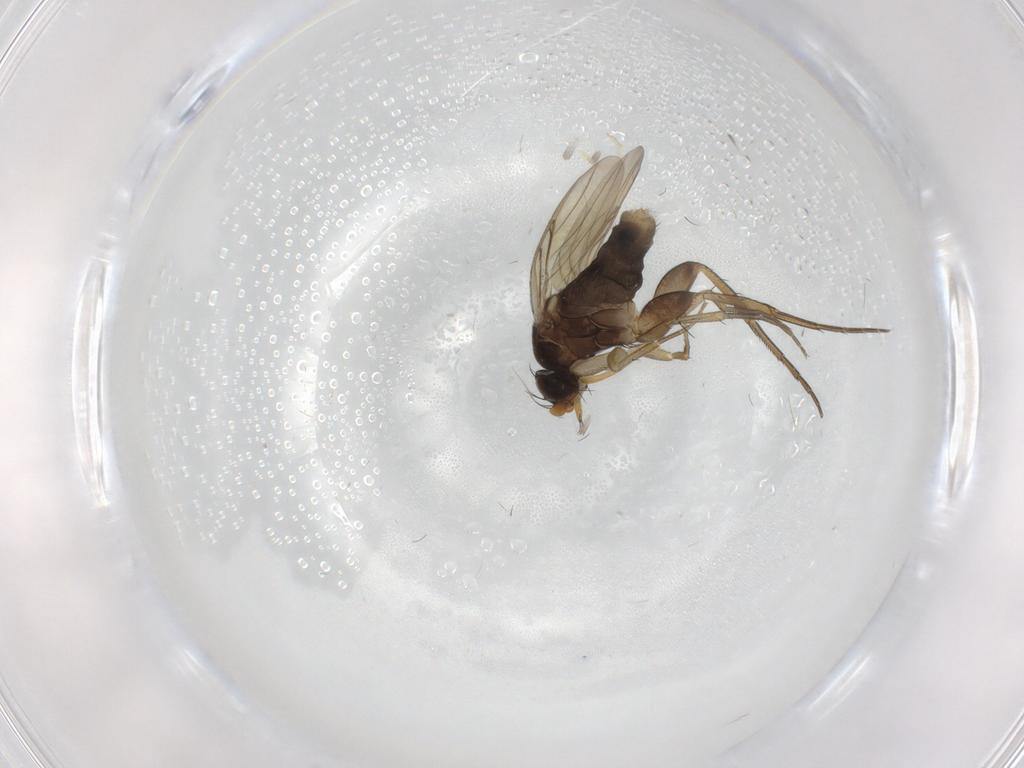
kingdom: Animalia
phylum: Arthropoda
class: Insecta
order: Diptera
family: Phoridae
